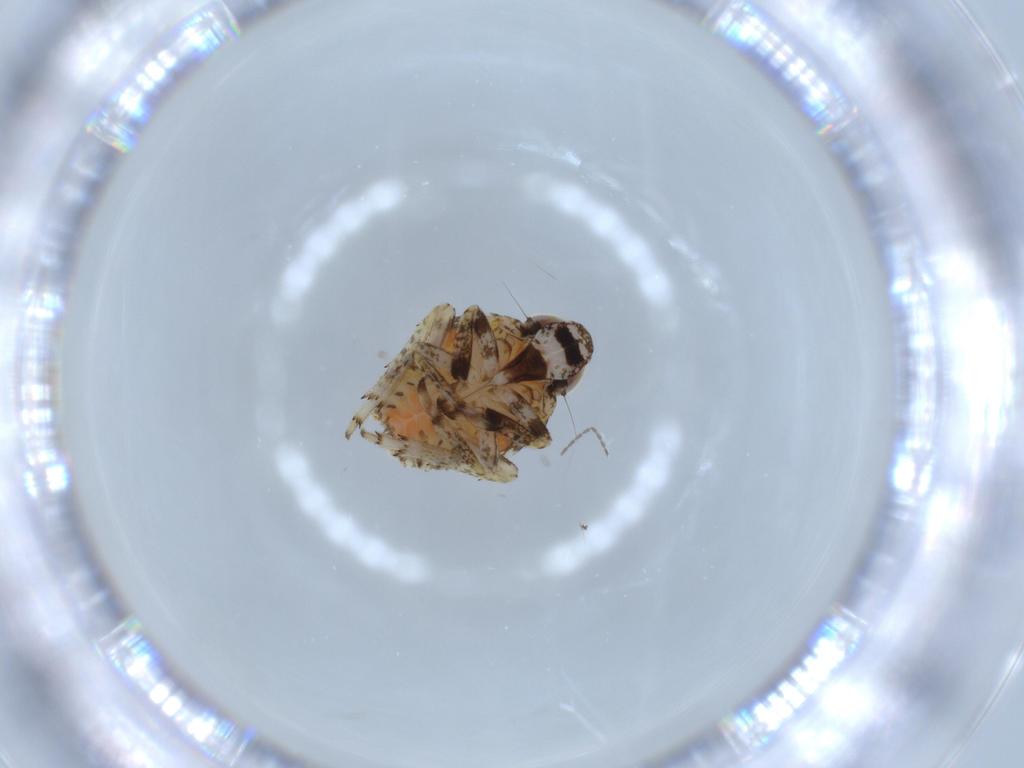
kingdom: Animalia
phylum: Arthropoda
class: Insecta
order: Hemiptera
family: Issidae
